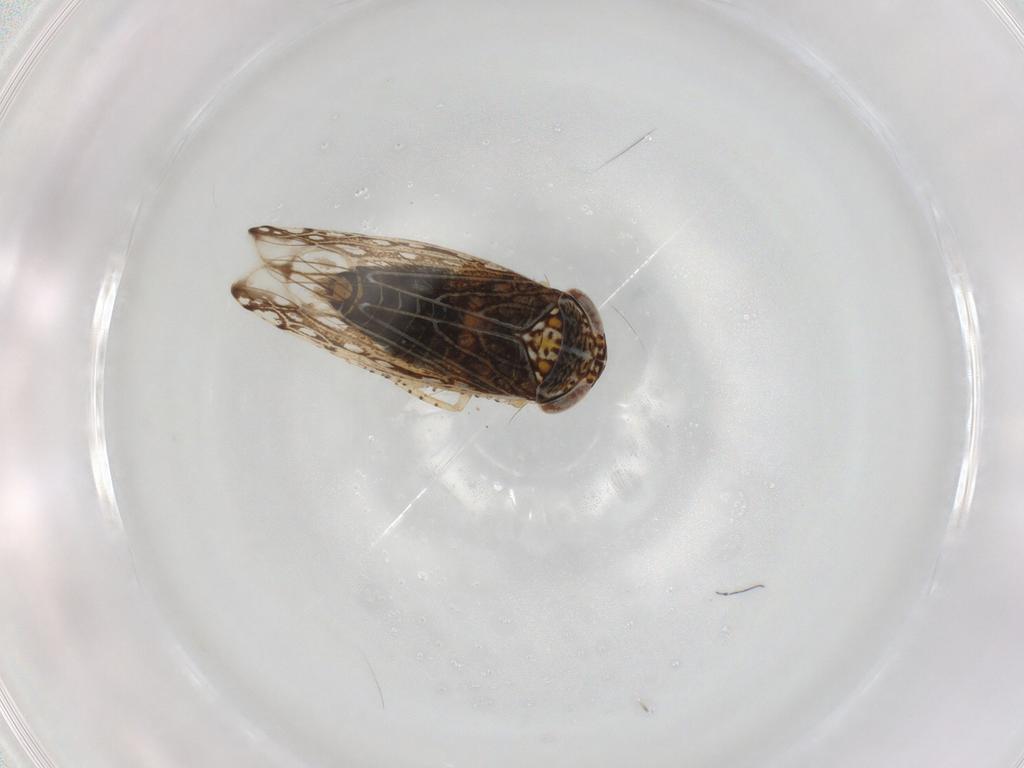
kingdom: Animalia
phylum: Arthropoda
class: Insecta
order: Hemiptera
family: Cicadellidae
